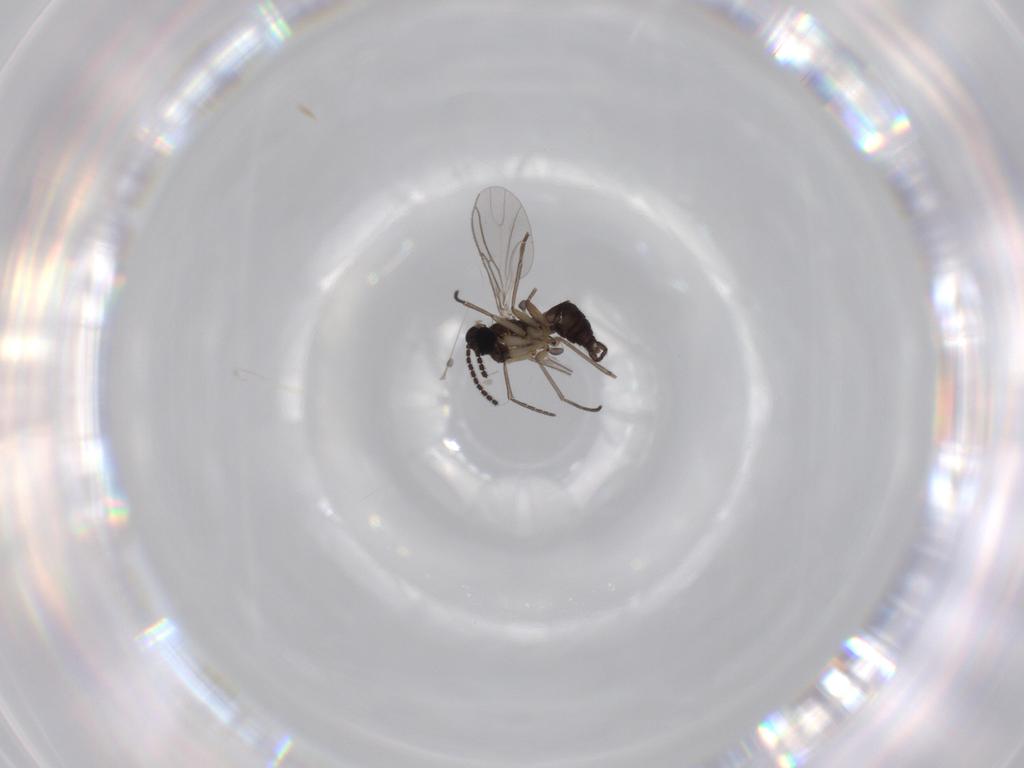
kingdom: Animalia
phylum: Arthropoda
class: Insecta
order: Diptera
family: Sciaridae
